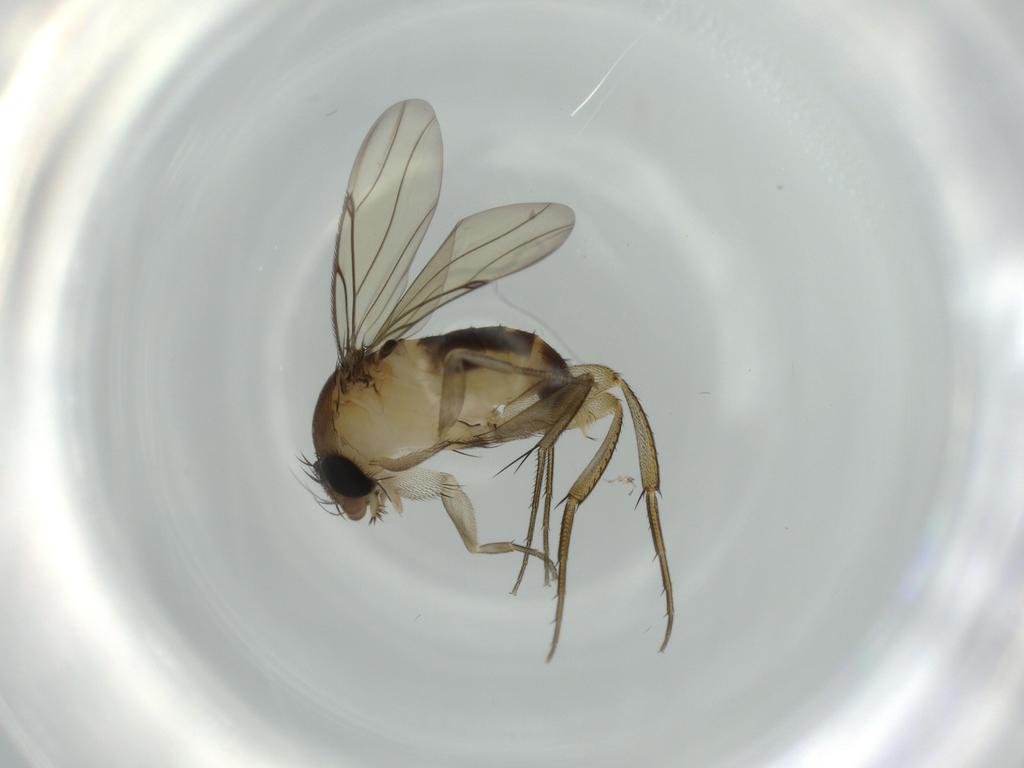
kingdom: Animalia
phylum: Arthropoda
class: Insecta
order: Diptera
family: Phoridae
